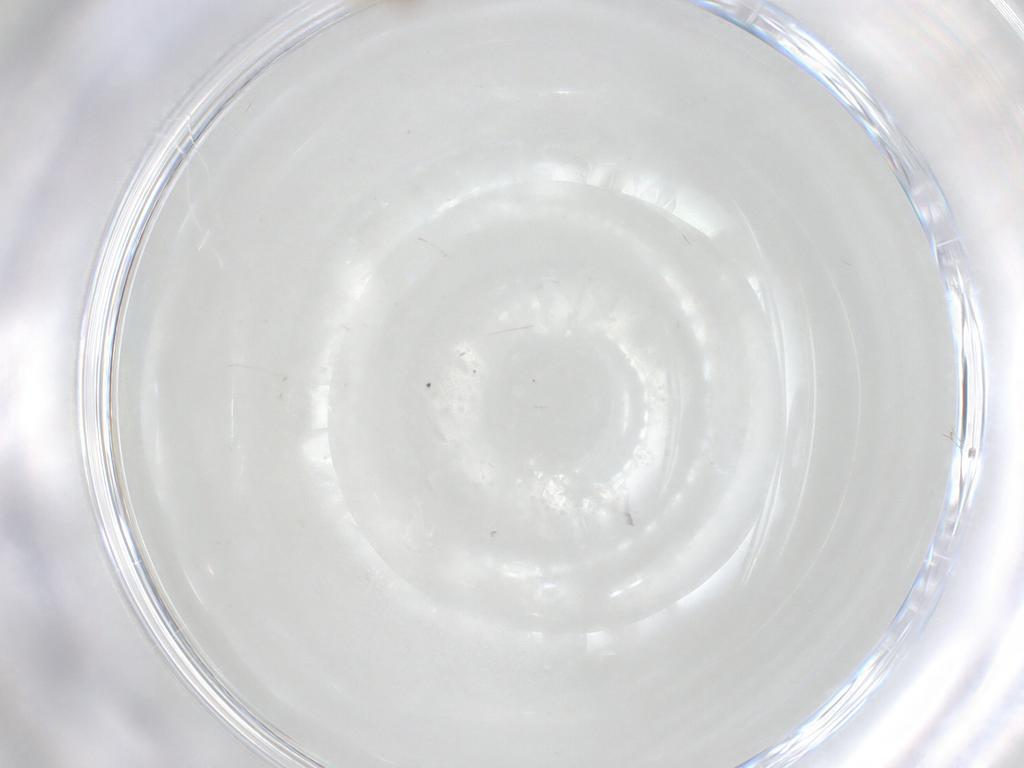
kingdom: Animalia
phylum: Arthropoda
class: Insecta
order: Diptera
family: Cecidomyiidae
